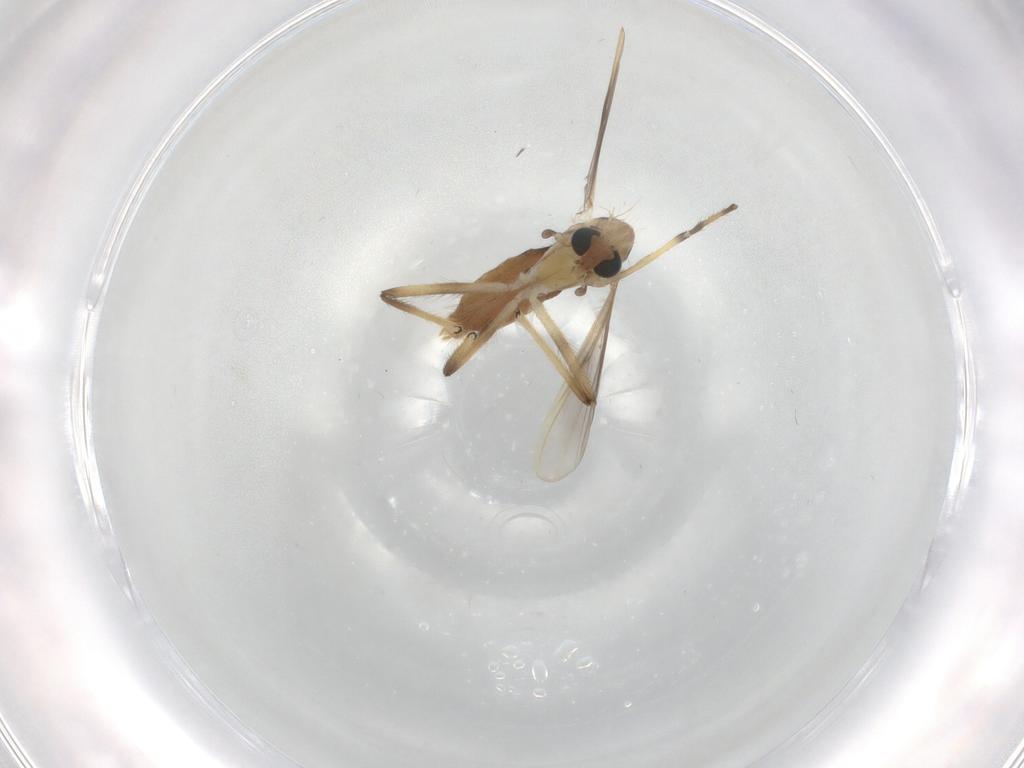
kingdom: Animalia
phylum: Arthropoda
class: Insecta
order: Diptera
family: Chironomidae
